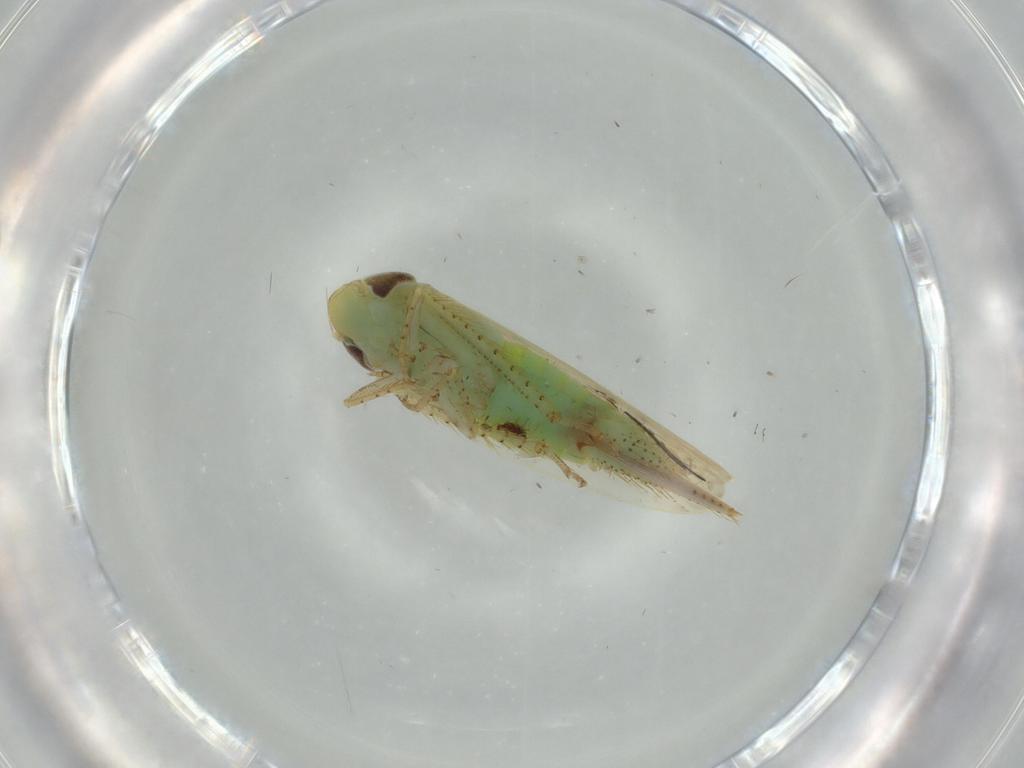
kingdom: Animalia
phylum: Arthropoda
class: Insecta
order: Hemiptera
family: Cicadellidae
